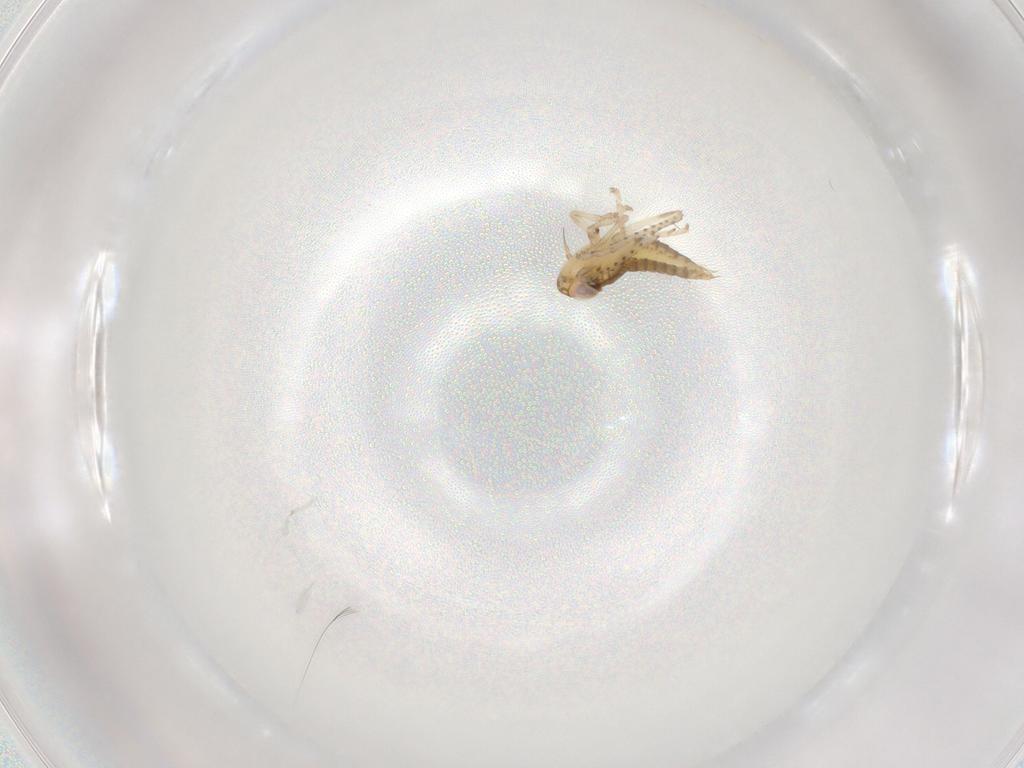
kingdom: Animalia
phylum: Arthropoda
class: Insecta
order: Hemiptera
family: Cicadellidae
